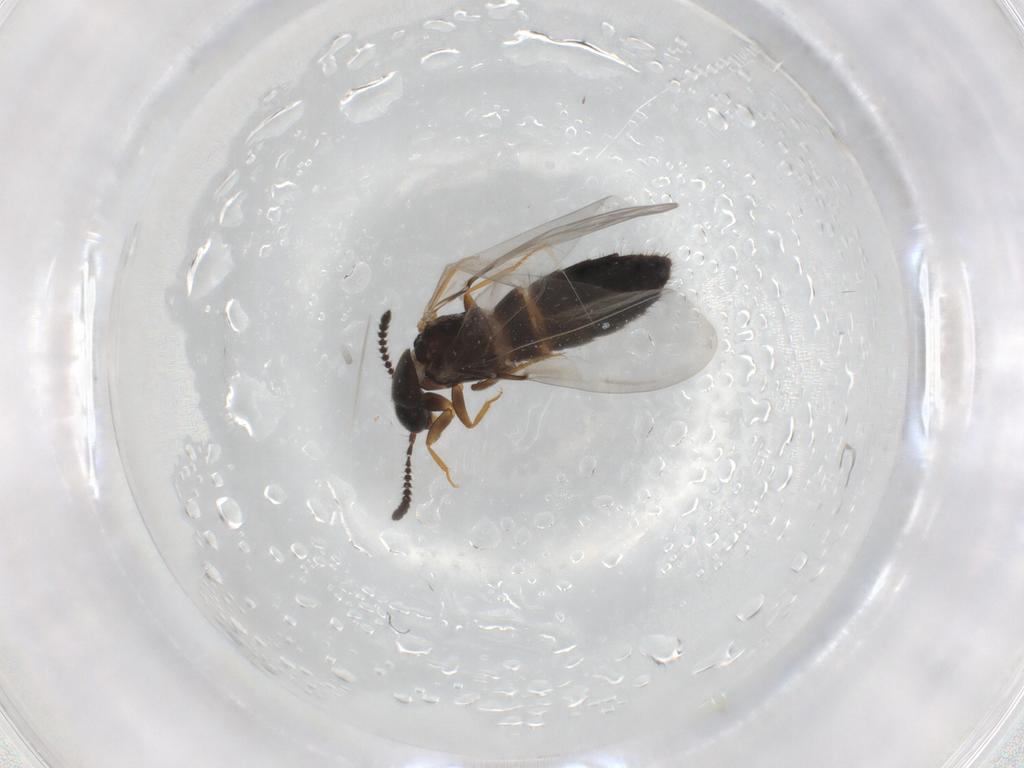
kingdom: Animalia
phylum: Arthropoda
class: Insecta
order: Coleoptera
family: Staphylinidae
